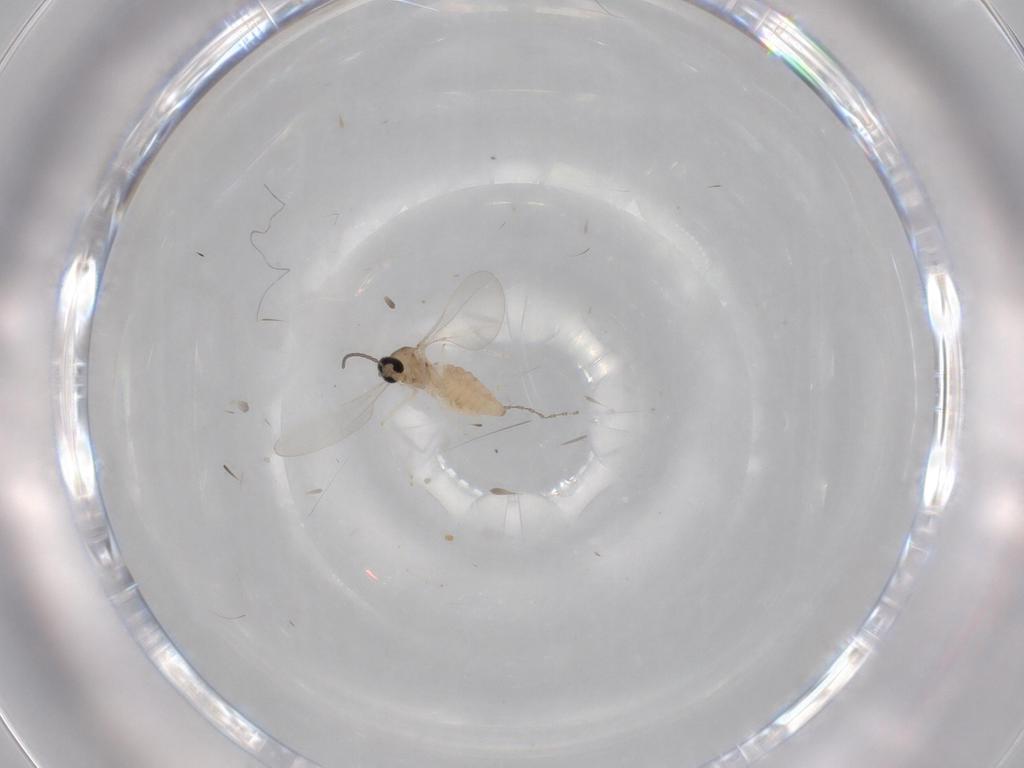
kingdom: Animalia
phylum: Arthropoda
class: Insecta
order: Diptera
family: Cecidomyiidae
